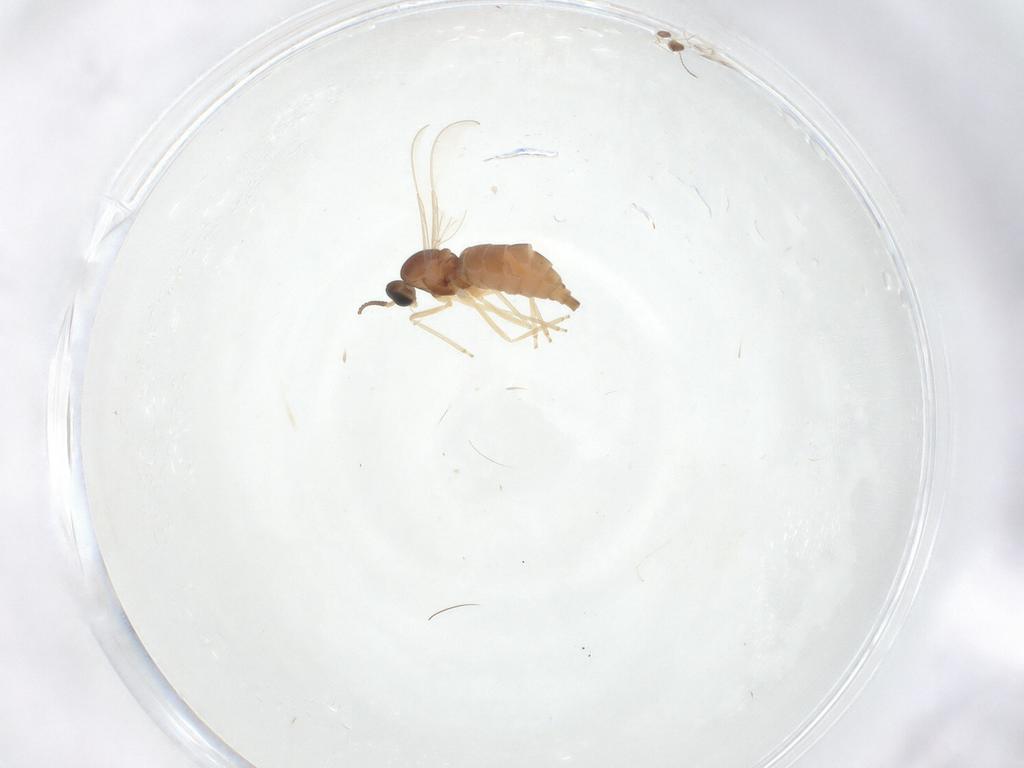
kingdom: Animalia
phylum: Arthropoda
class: Insecta
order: Diptera
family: Cecidomyiidae
